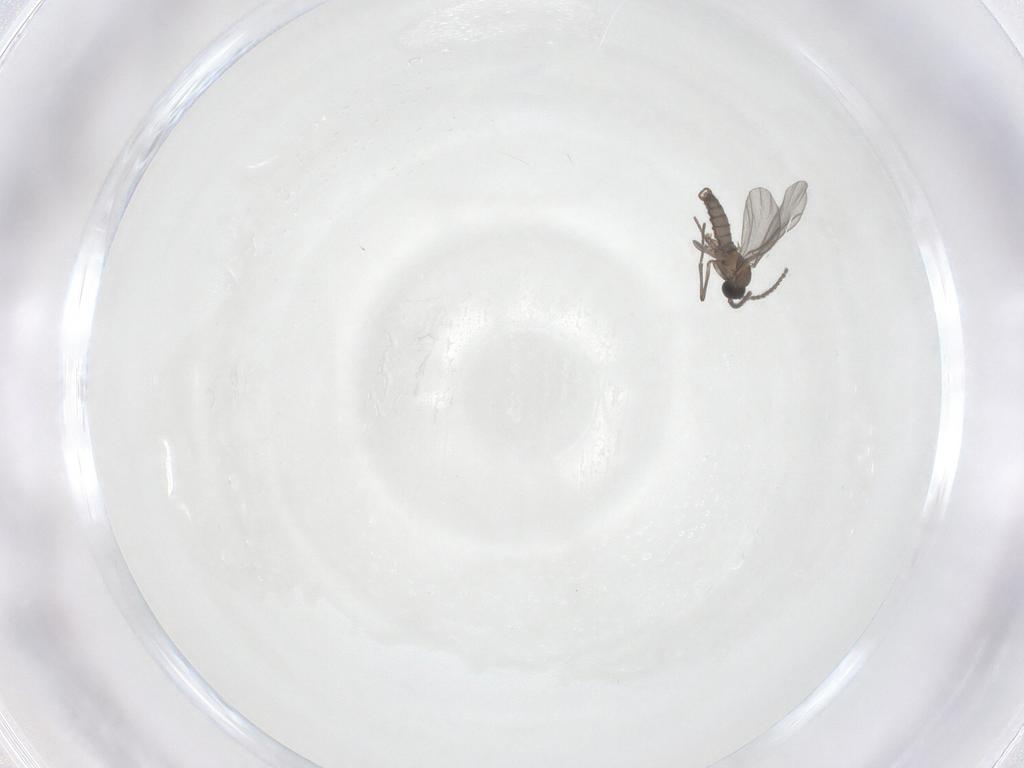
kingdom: Animalia
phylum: Arthropoda
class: Insecta
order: Diptera
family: Sciaridae
